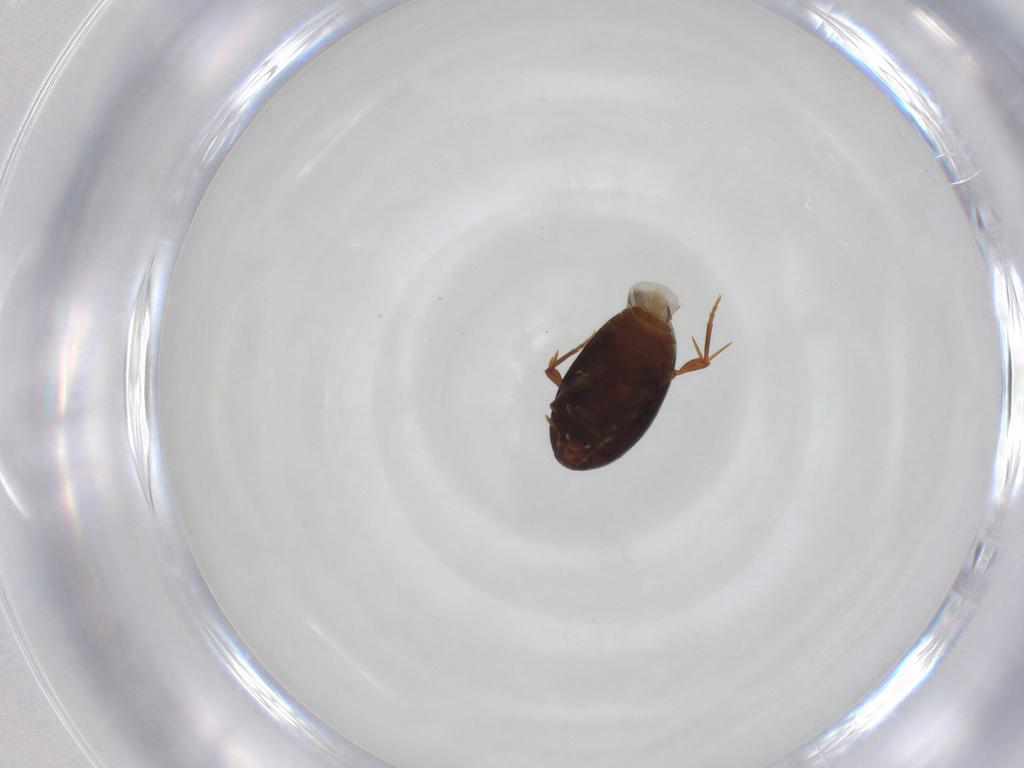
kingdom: Animalia
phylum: Arthropoda
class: Insecta
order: Coleoptera
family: Melandryidae
